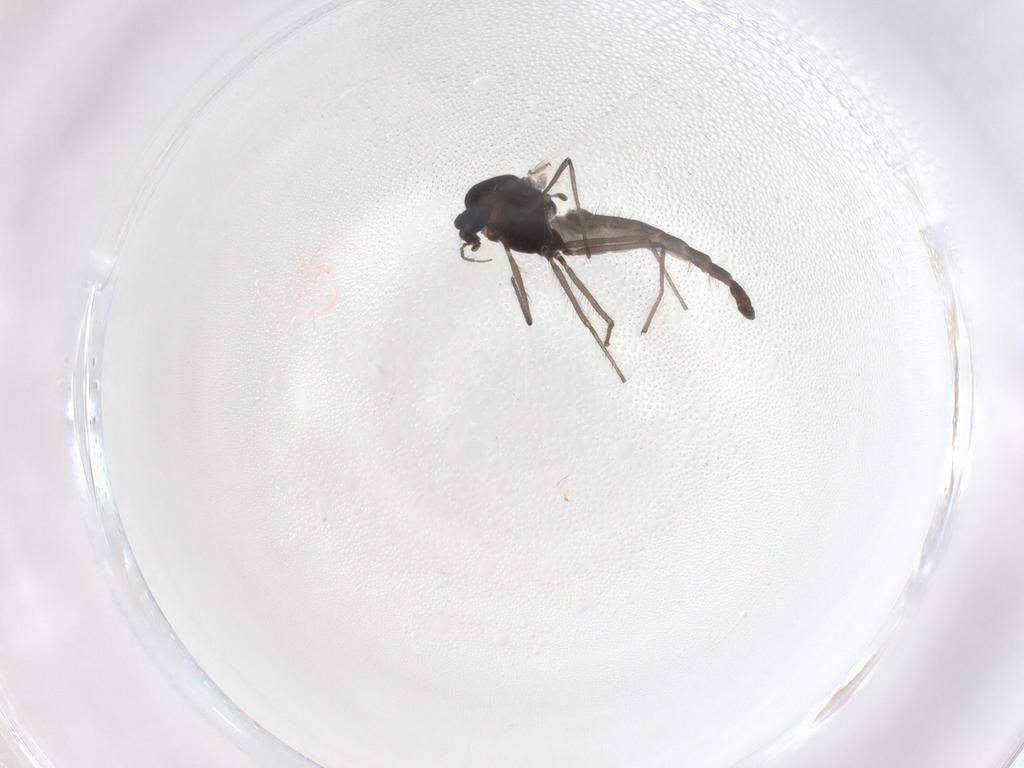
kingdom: Animalia
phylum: Arthropoda
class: Insecta
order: Diptera
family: Chironomidae
